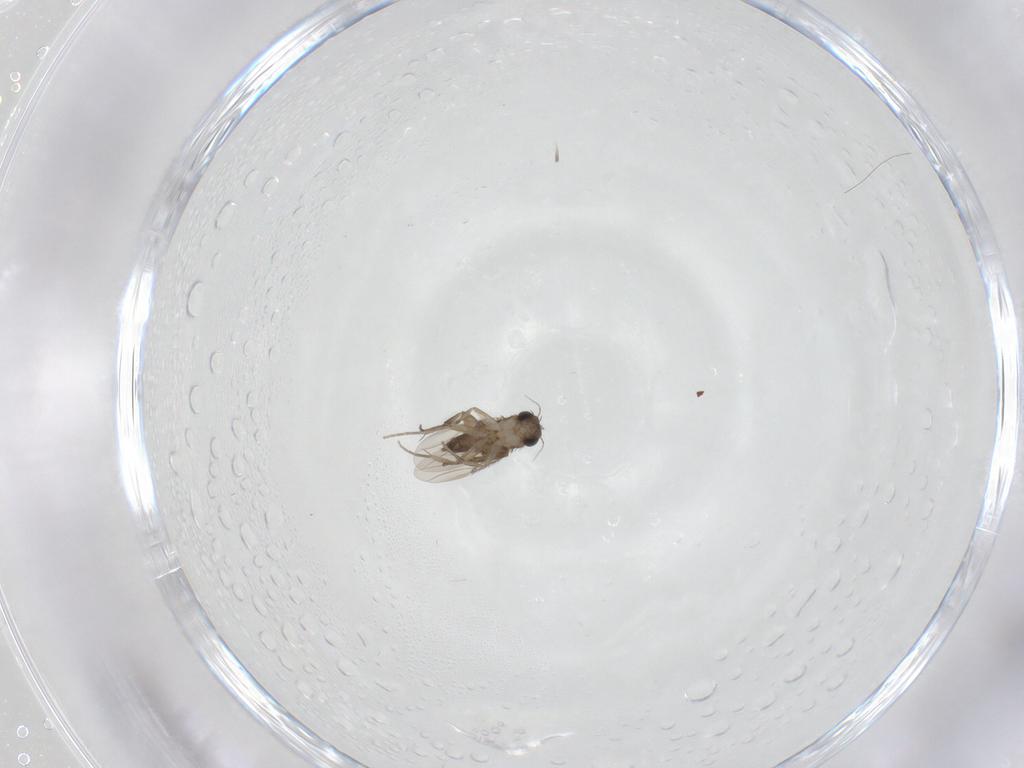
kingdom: Animalia
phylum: Arthropoda
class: Insecta
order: Diptera
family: Phoridae
